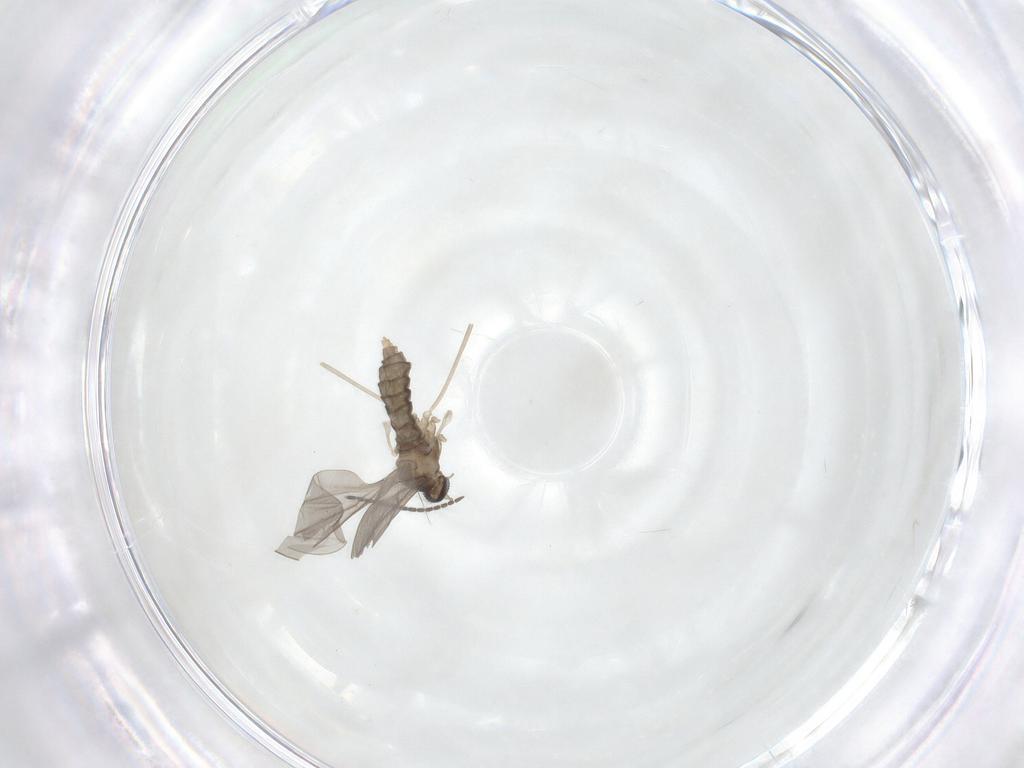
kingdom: Animalia
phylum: Arthropoda
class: Insecta
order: Diptera
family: Cecidomyiidae
